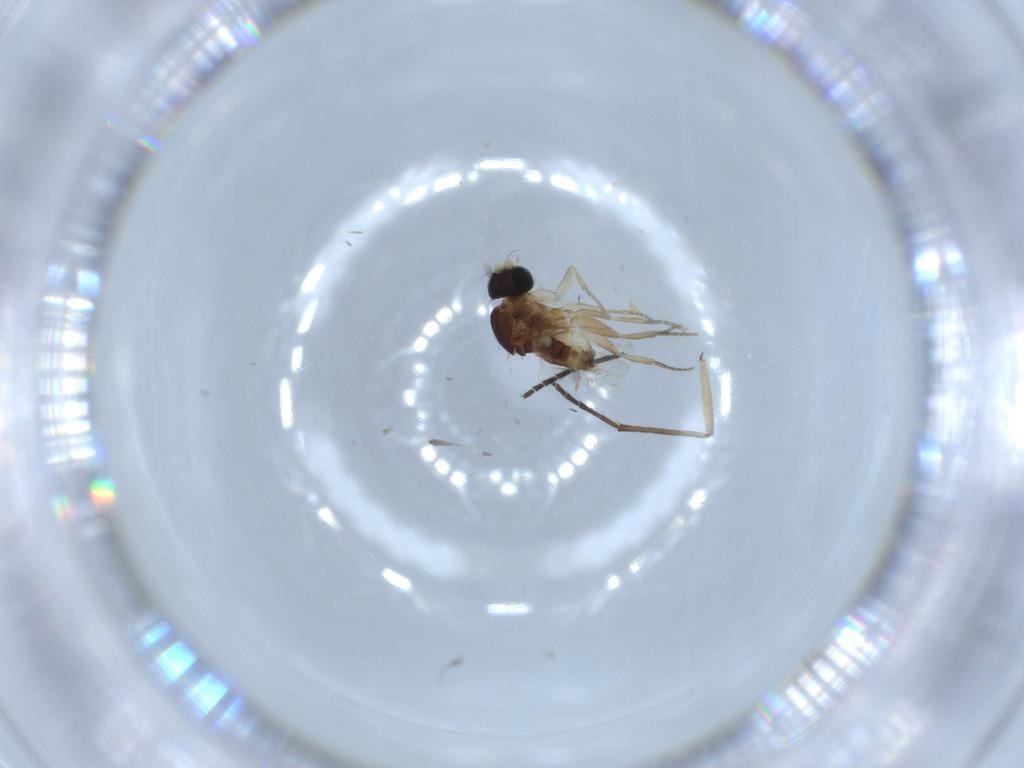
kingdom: Animalia
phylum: Arthropoda
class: Insecta
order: Diptera
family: Phoridae
